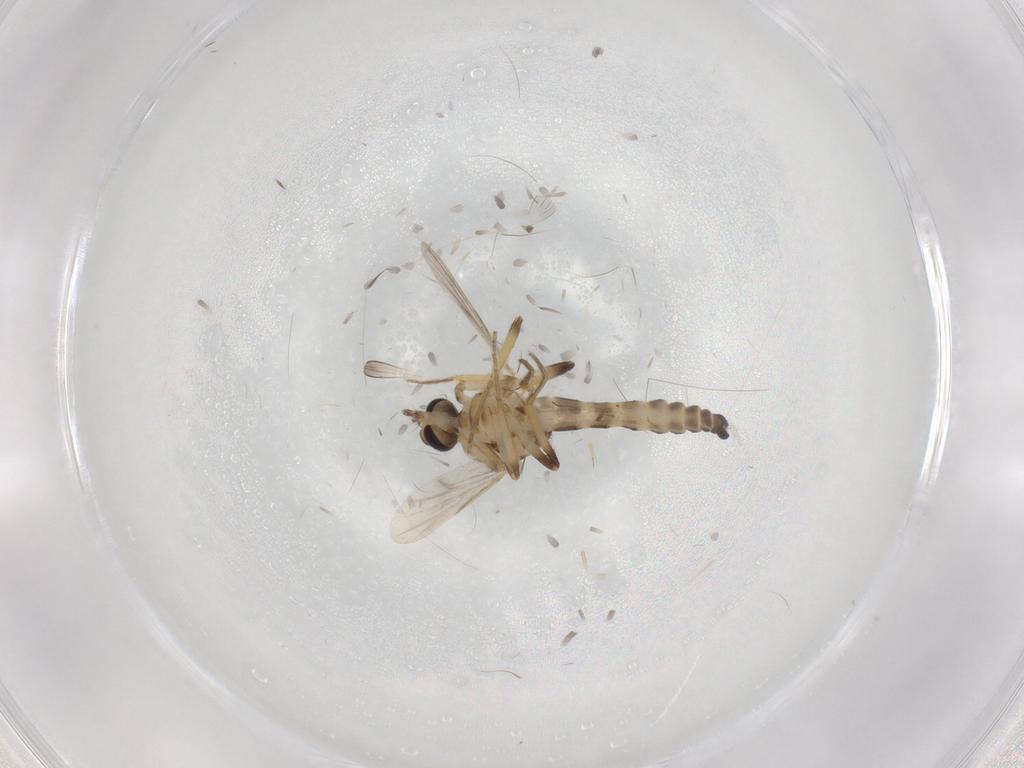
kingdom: Animalia
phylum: Arthropoda
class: Insecta
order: Diptera
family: Ceratopogonidae
